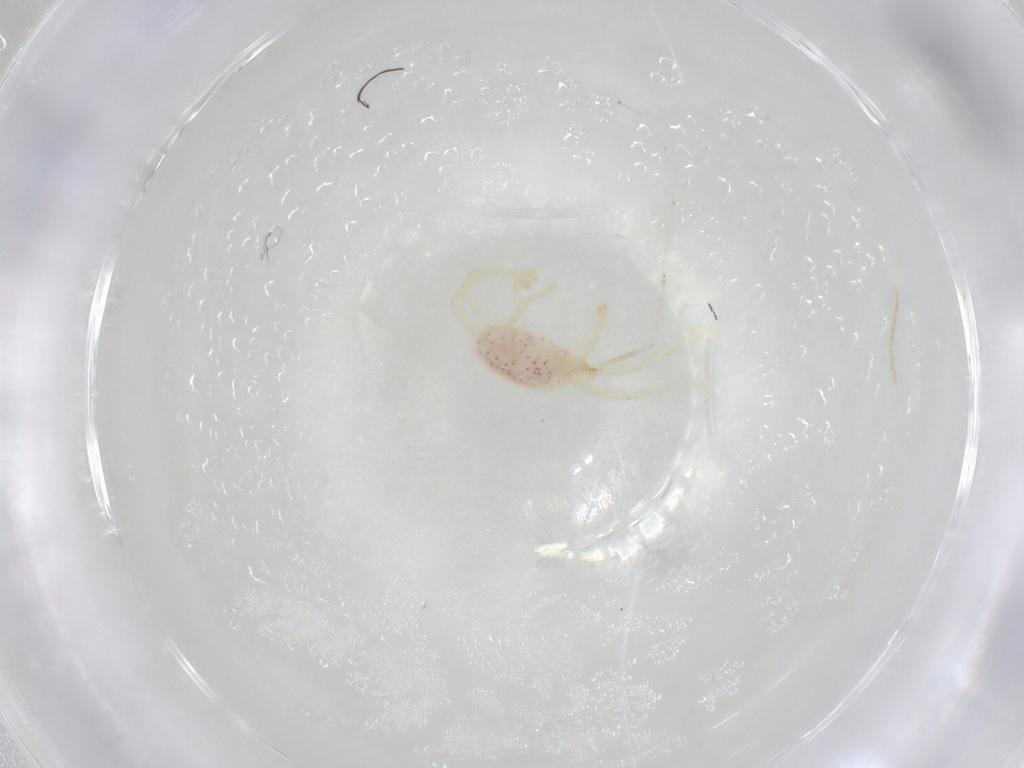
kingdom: Animalia
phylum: Arthropoda
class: Arachnida
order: Trombidiformes
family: Erythraeidae
